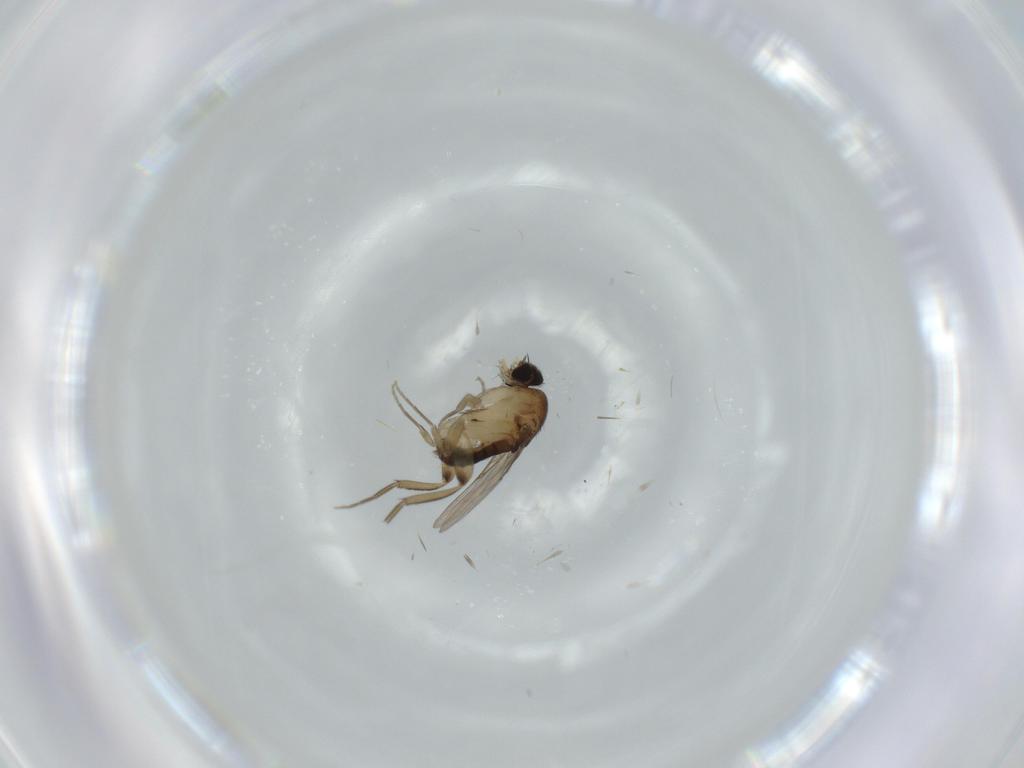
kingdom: Animalia
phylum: Arthropoda
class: Insecta
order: Diptera
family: Phoridae
